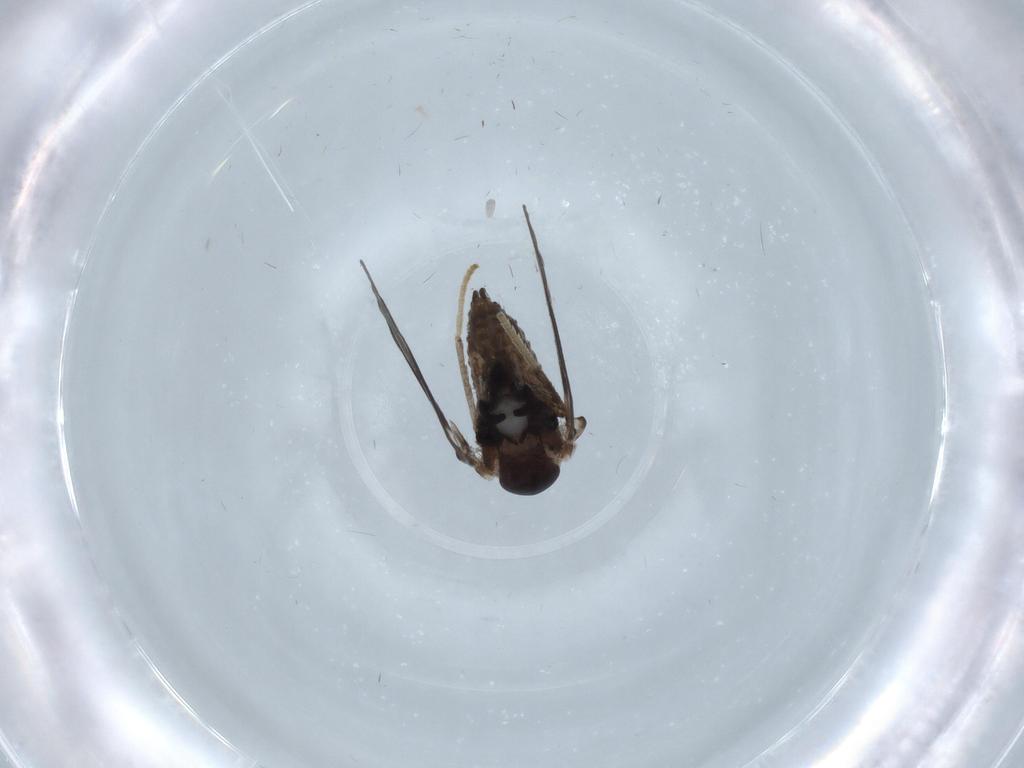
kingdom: Animalia
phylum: Arthropoda
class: Insecta
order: Diptera
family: Psychodidae
